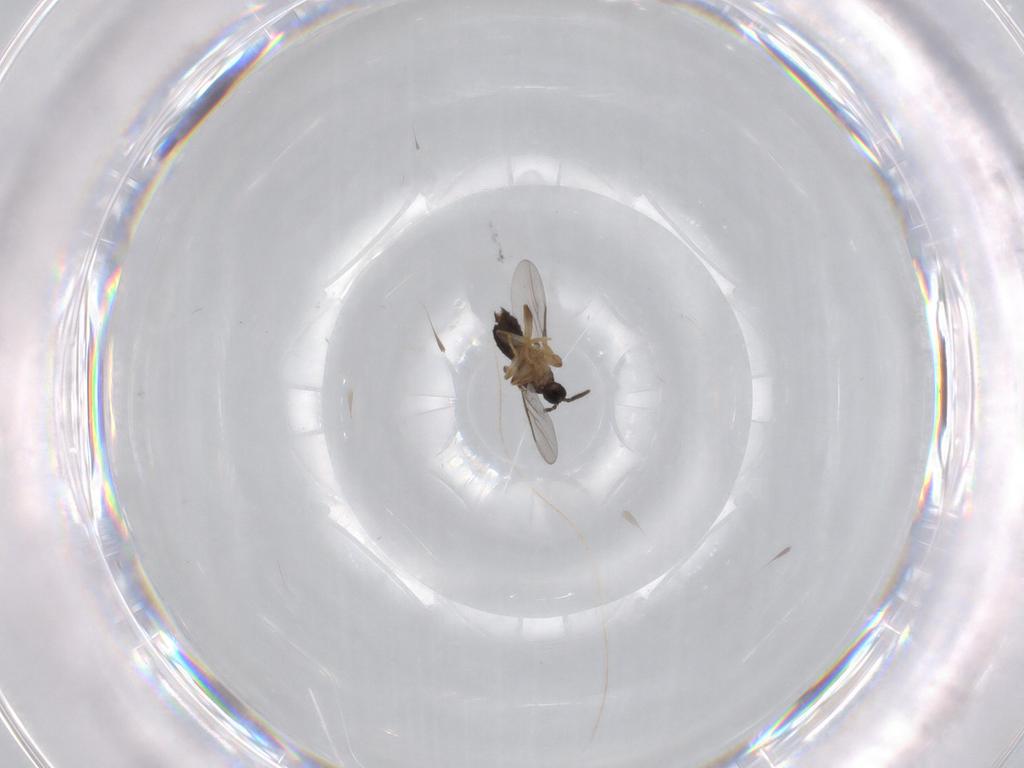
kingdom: Animalia
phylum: Arthropoda
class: Insecta
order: Diptera
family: Scatopsidae
